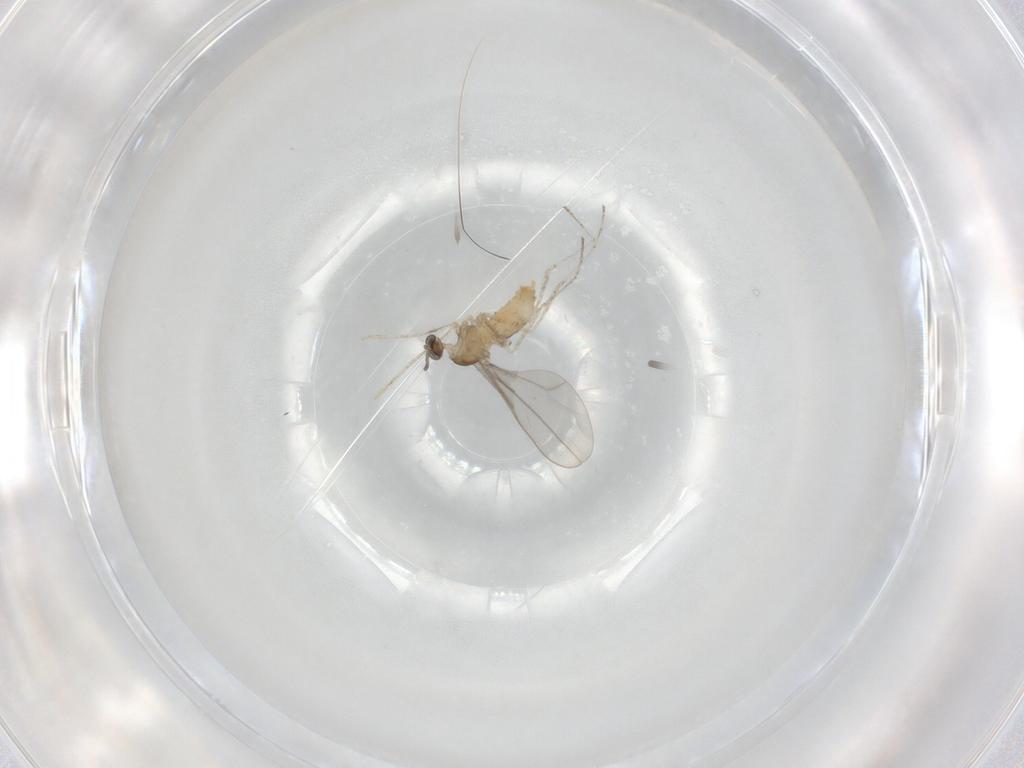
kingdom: Animalia
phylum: Arthropoda
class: Insecta
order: Diptera
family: Cecidomyiidae
